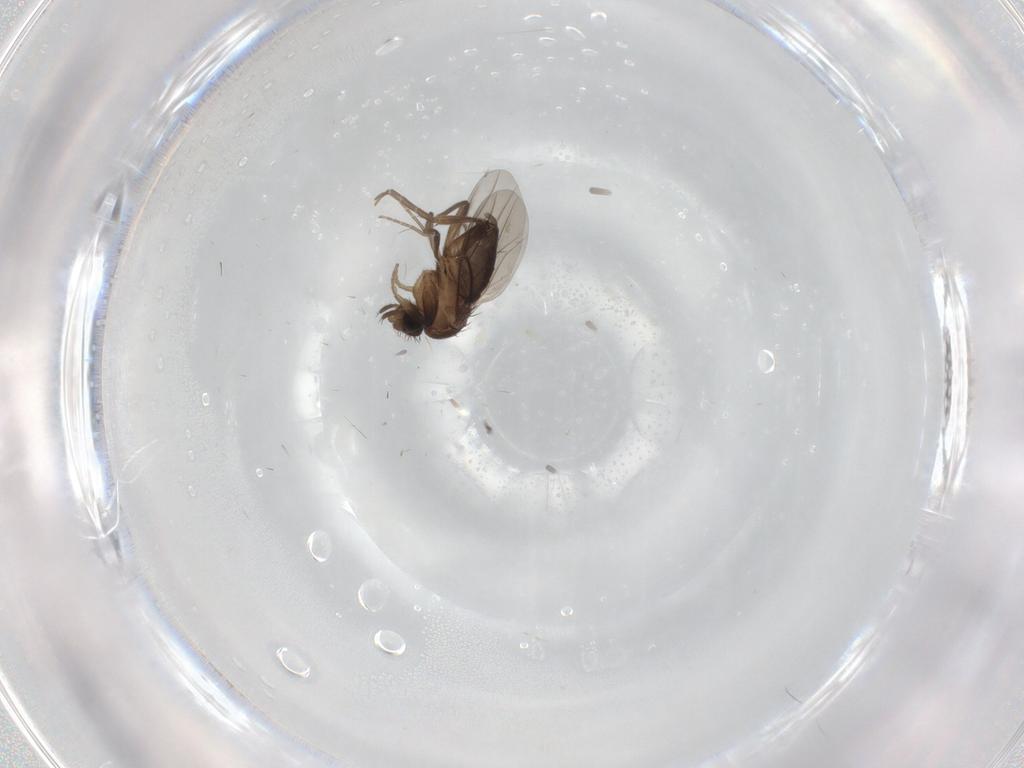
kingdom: Animalia
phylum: Arthropoda
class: Insecta
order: Diptera
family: Phoridae
